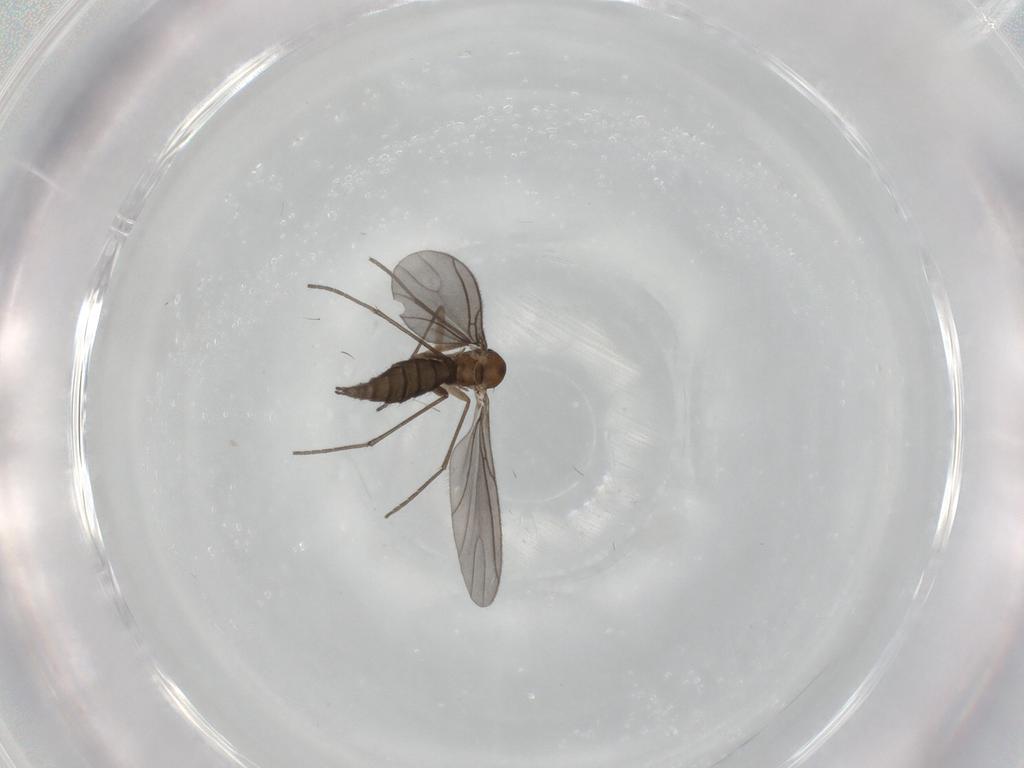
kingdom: Animalia
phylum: Arthropoda
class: Insecta
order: Diptera
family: Sciaridae
